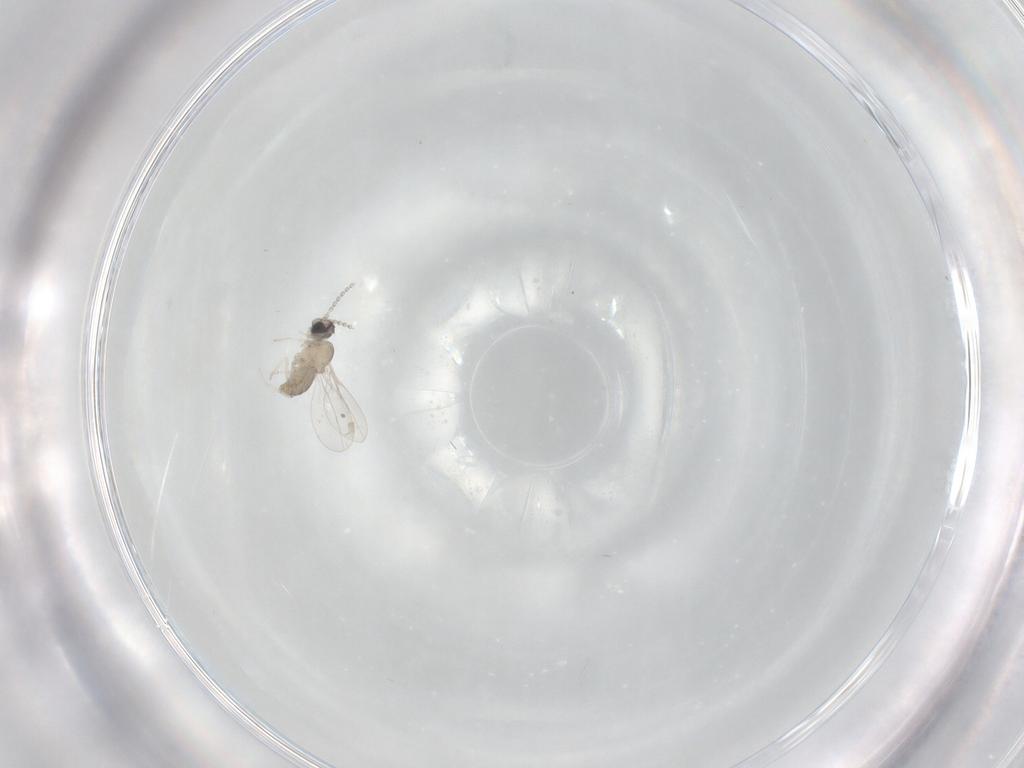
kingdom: Animalia
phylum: Arthropoda
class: Insecta
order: Diptera
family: Cecidomyiidae
